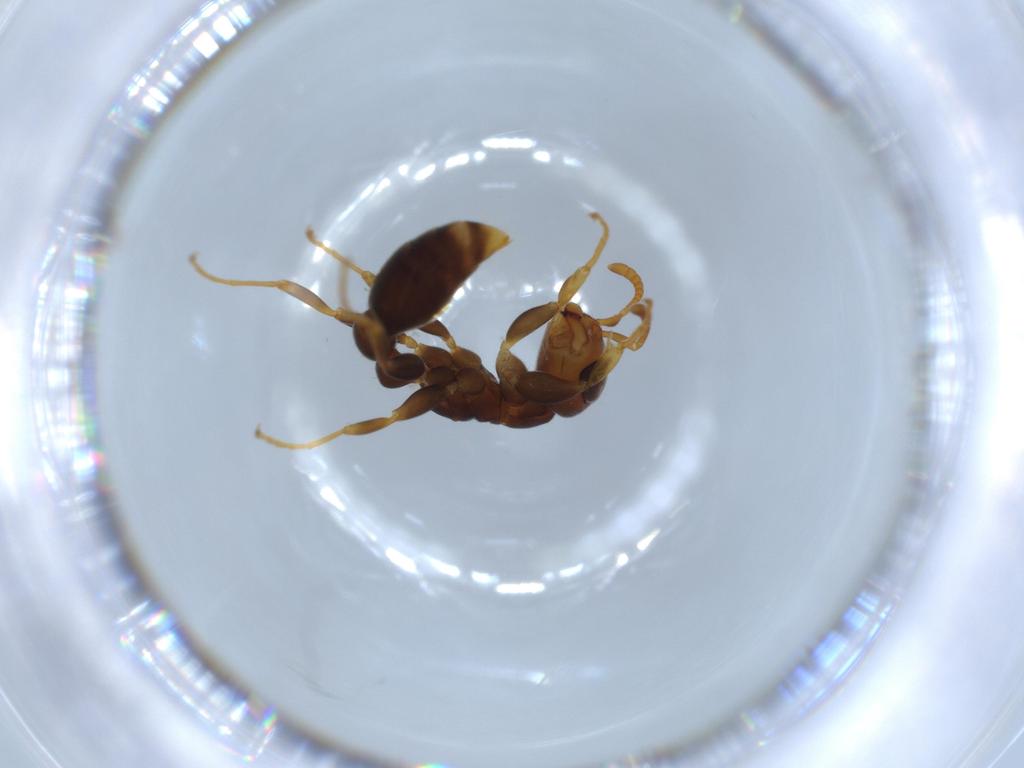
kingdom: Animalia
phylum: Arthropoda
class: Insecta
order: Hymenoptera
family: Formicidae
